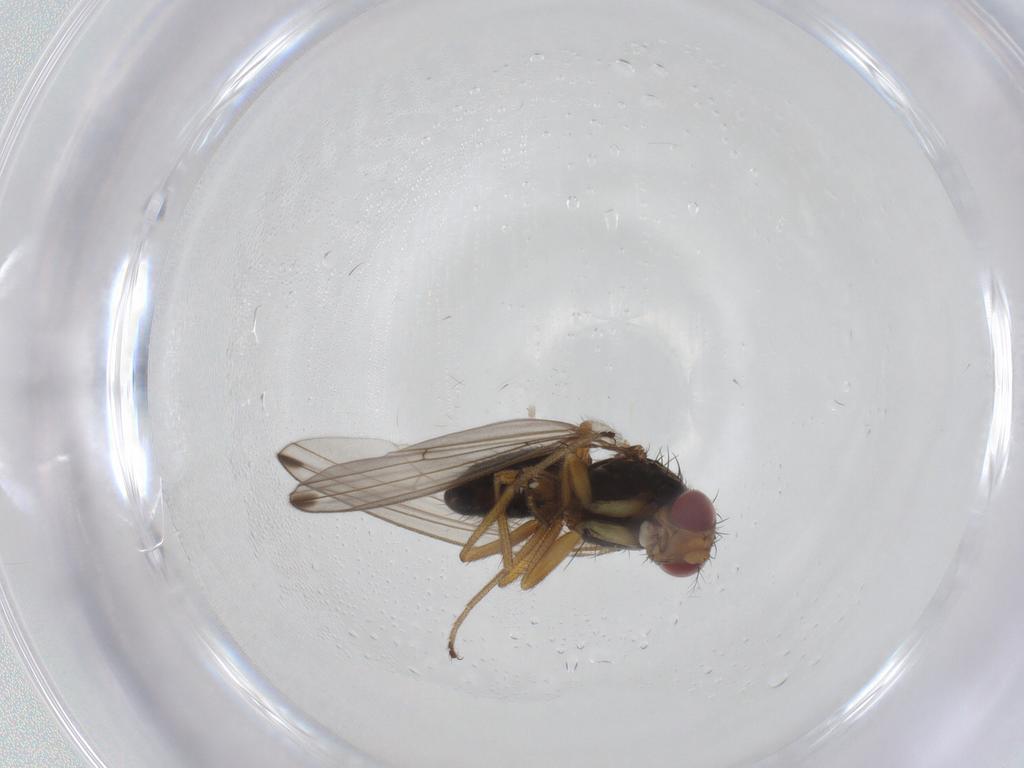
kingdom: Animalia
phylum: Arthropoda
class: Insecta
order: Diptera
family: Drosophilidae
